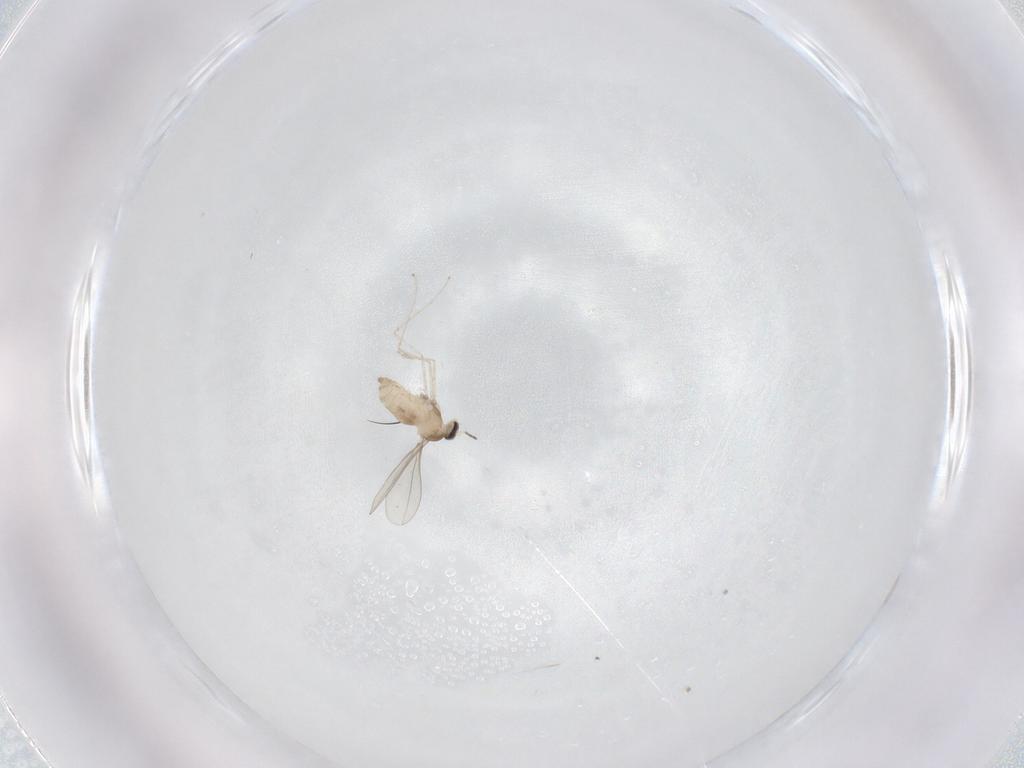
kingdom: Animalia
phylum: Arthropoda
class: Insecta
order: Diptera
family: Cecidomyiidae
